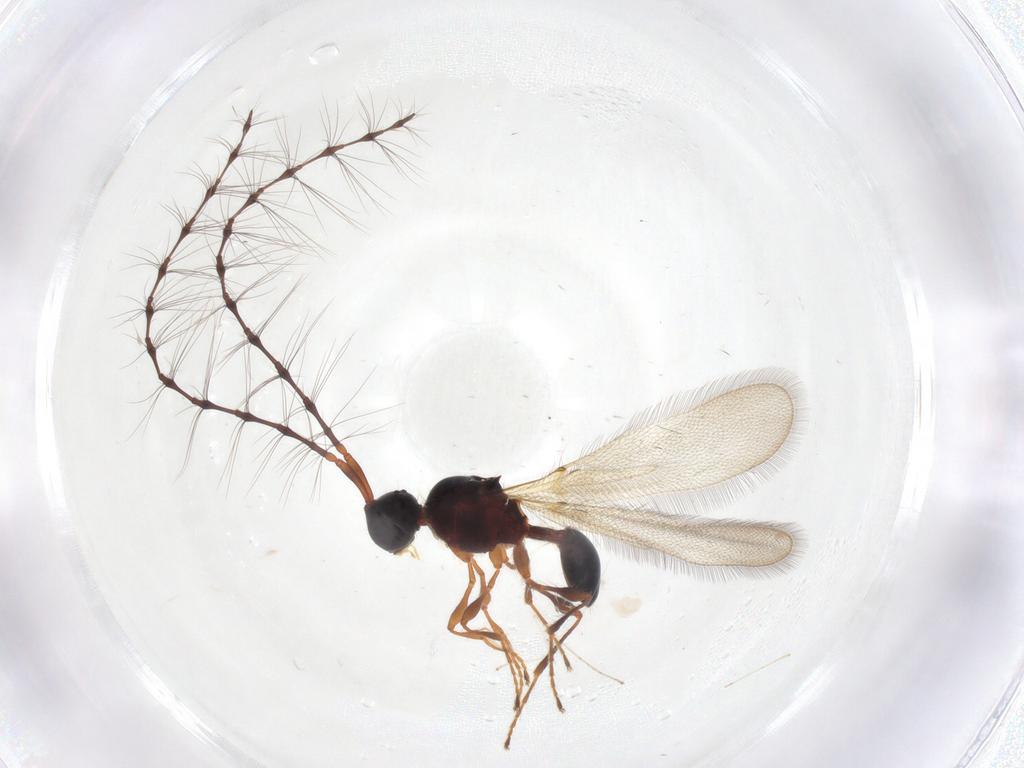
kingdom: Animalia
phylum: Arthropoda
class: Insecta
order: Hymenoptera
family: Diapriidae
